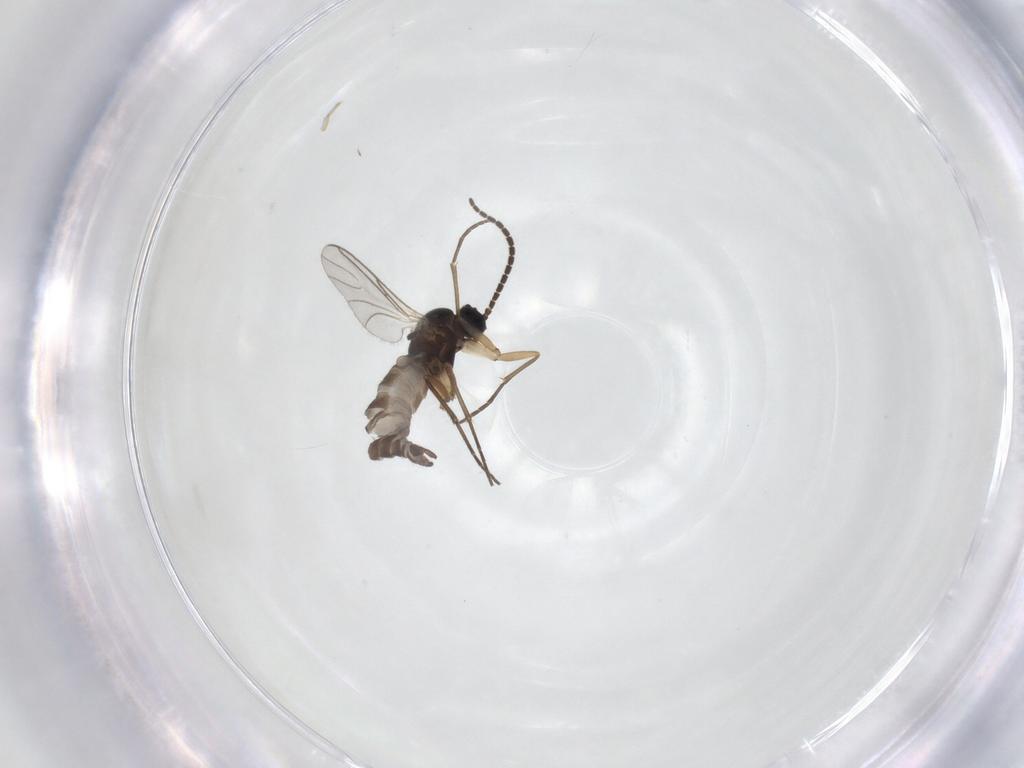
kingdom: Animalia
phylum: Arthropoda
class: Insecta
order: Diptera
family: Sciaridae
